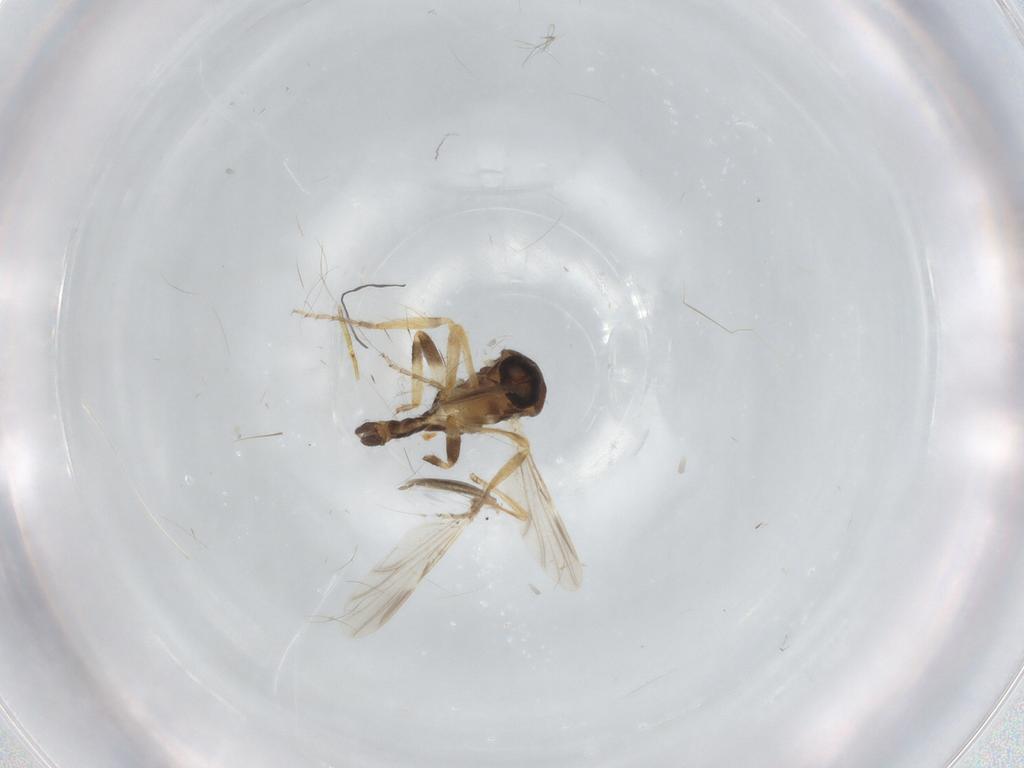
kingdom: Animalia
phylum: Arthropoda
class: Insecta
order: Diptera
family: Ceratopogonidae
